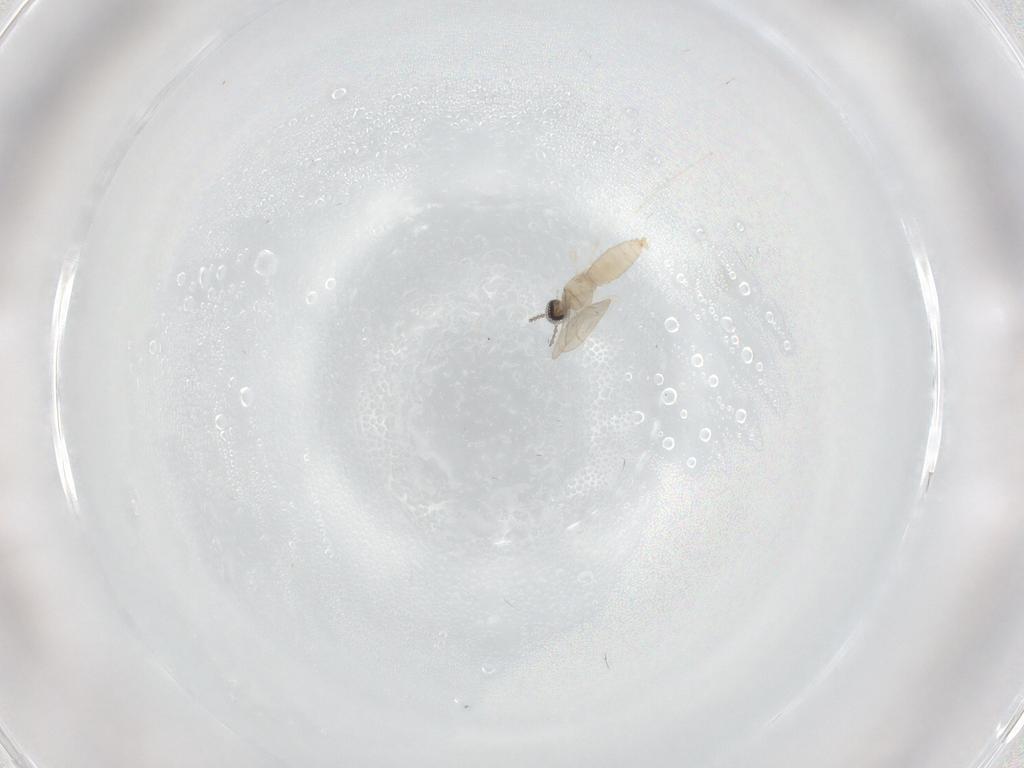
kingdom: Animalia
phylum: Arthropoda
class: Insecta
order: Diptera
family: Cecidomyiidae
